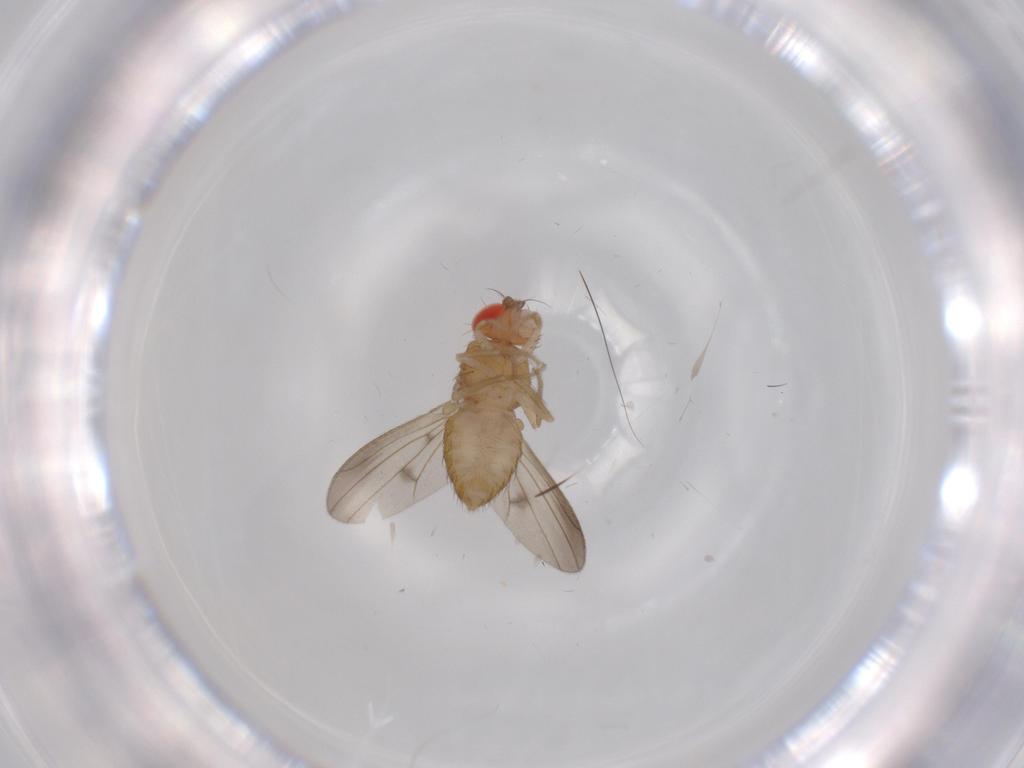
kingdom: Animalia
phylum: Arthropoda
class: Insecta
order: Diptera
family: Drosophilidae
